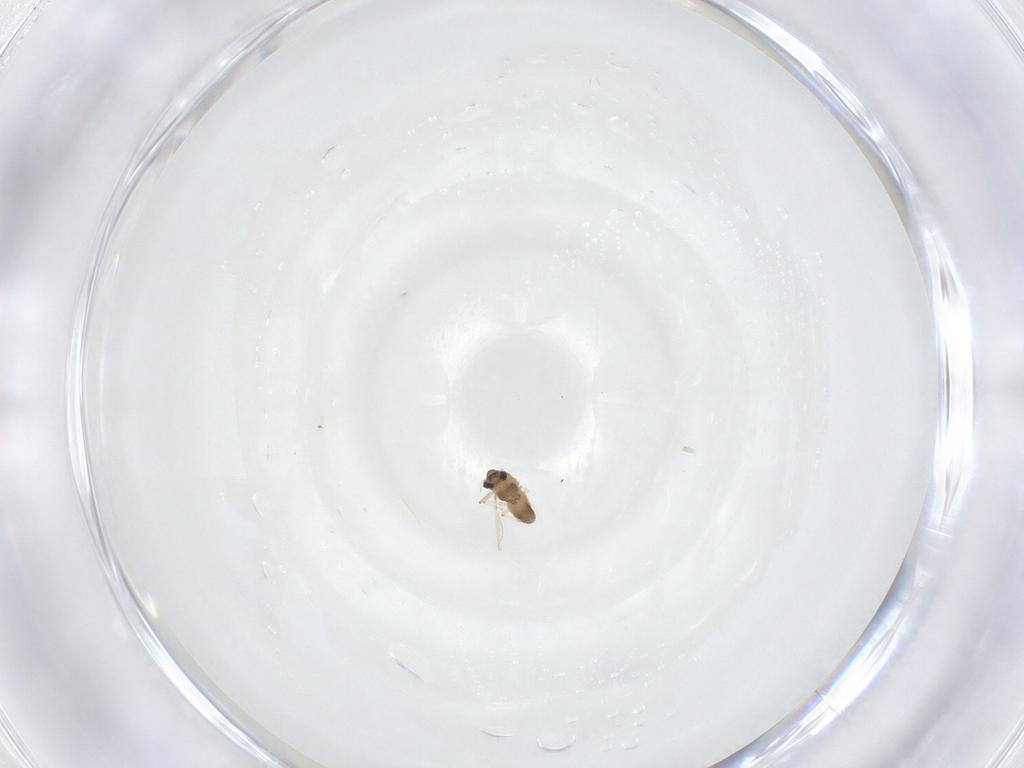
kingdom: Animalia
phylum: Arthropoda
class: Insecta
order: Diptera
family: Chironomidae
